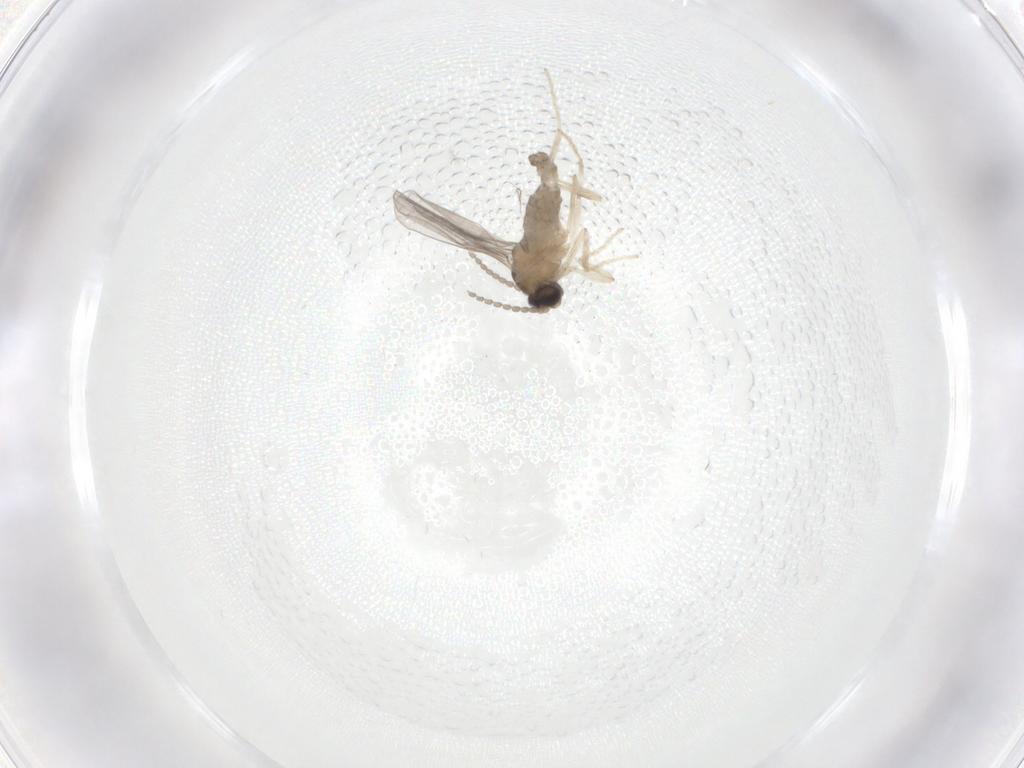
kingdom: Animalia
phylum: Arthropoda
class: Insecta
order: Diptera
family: Cecidomyiidae
